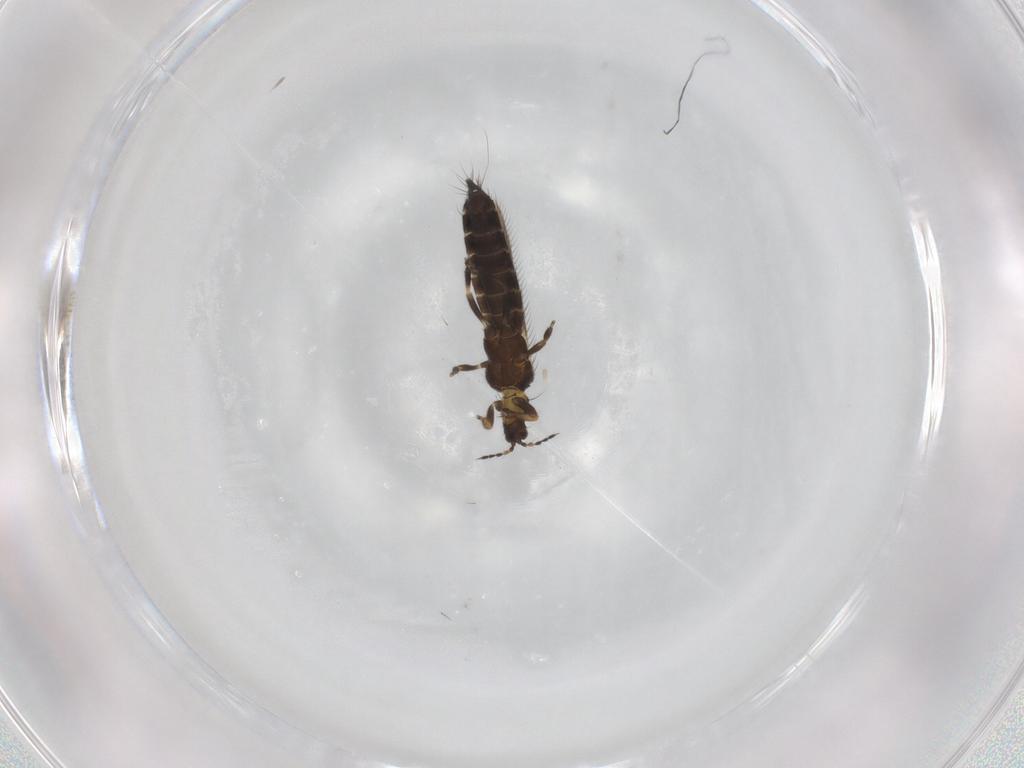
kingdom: Animalia
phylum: Arthropoda
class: Insecta
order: Thysanoptera
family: Thripidae
